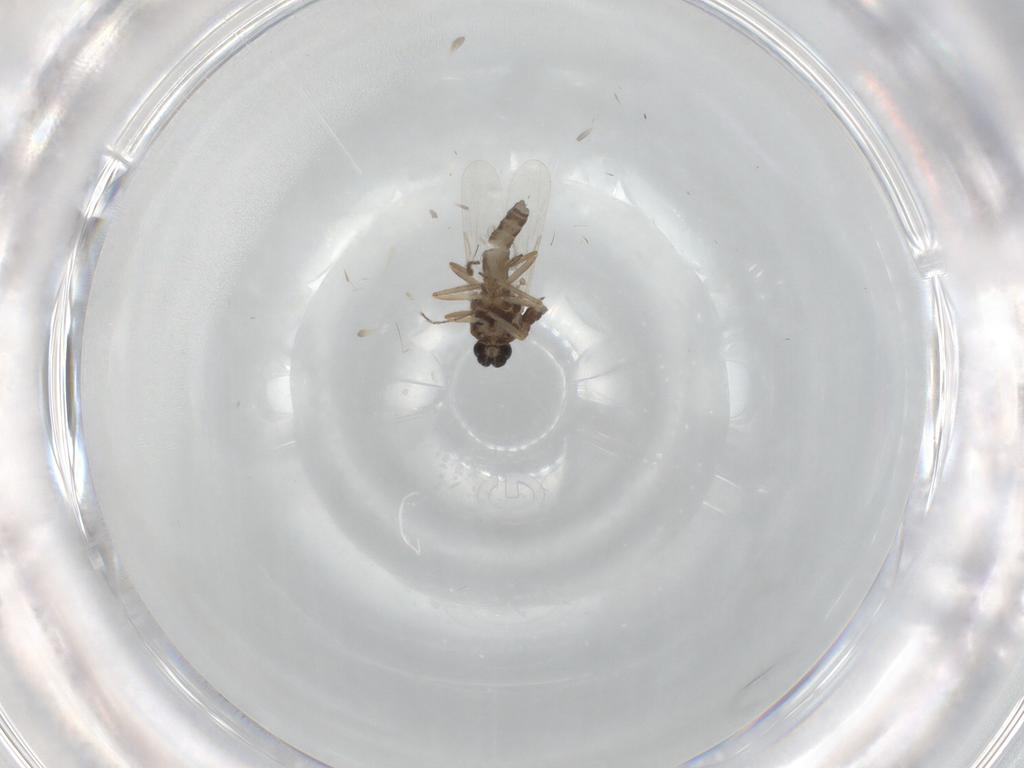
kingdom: Animalia
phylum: Arthropoda
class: Insecta
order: Diptera
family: Ceratopogonidae
